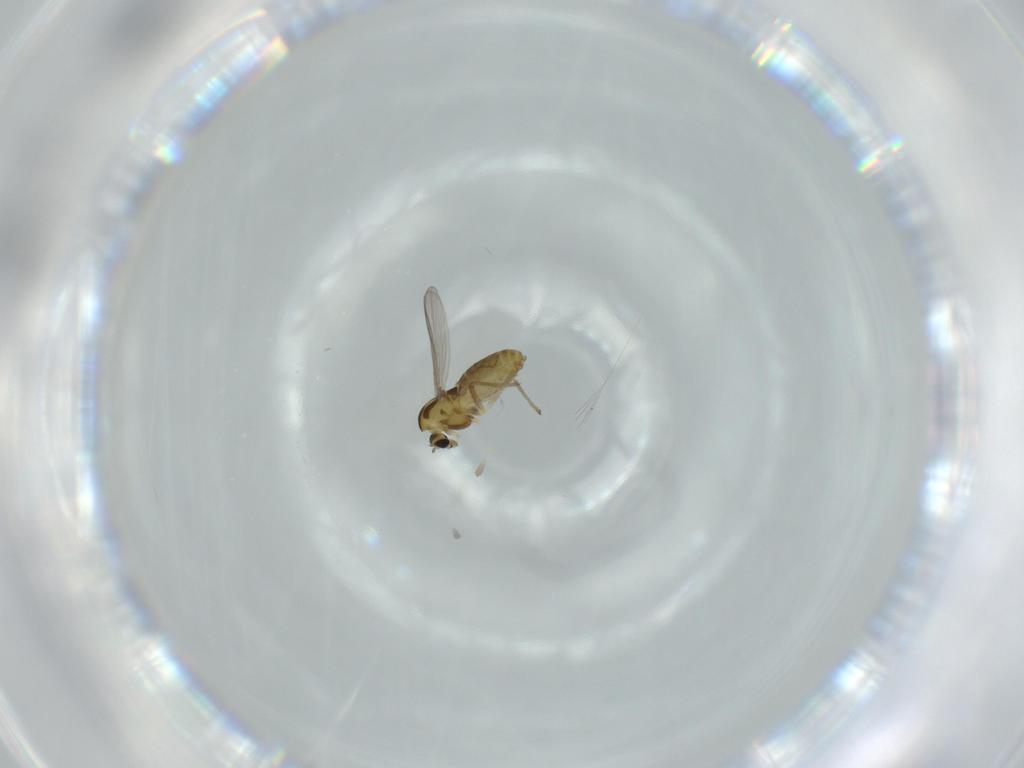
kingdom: Animalia
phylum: Arthropoda
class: Insecta
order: Diptera
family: Chironomidae
